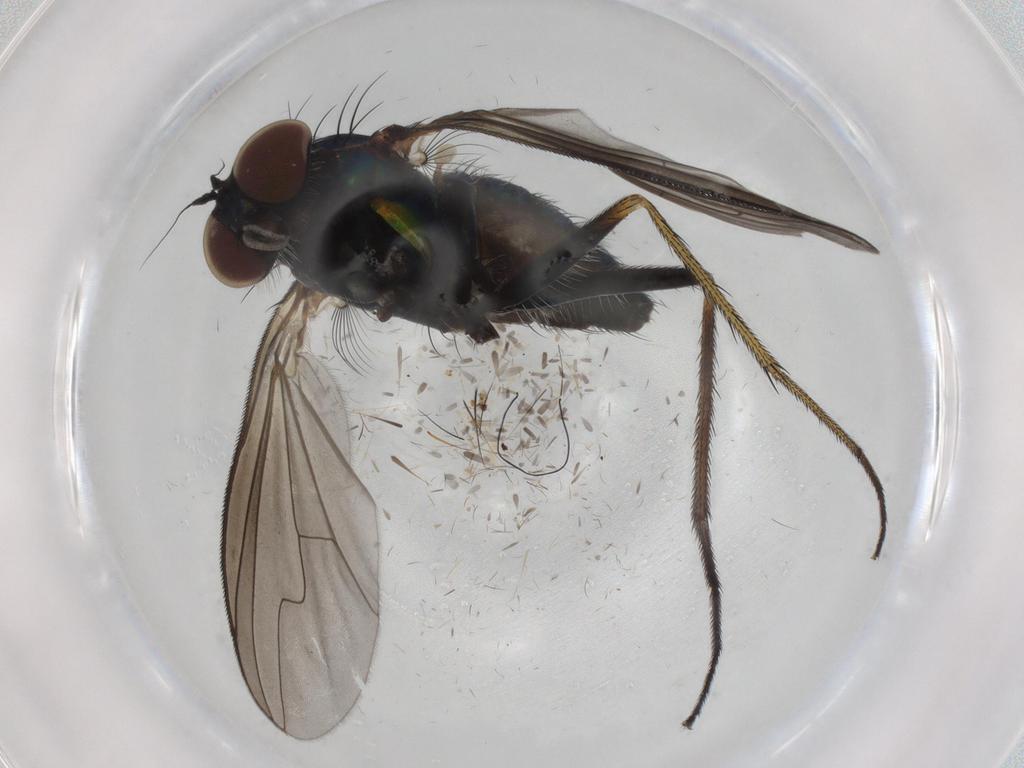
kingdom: Animalia
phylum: Arthropoda
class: Insecta
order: Diptera
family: Dolichopodidae
